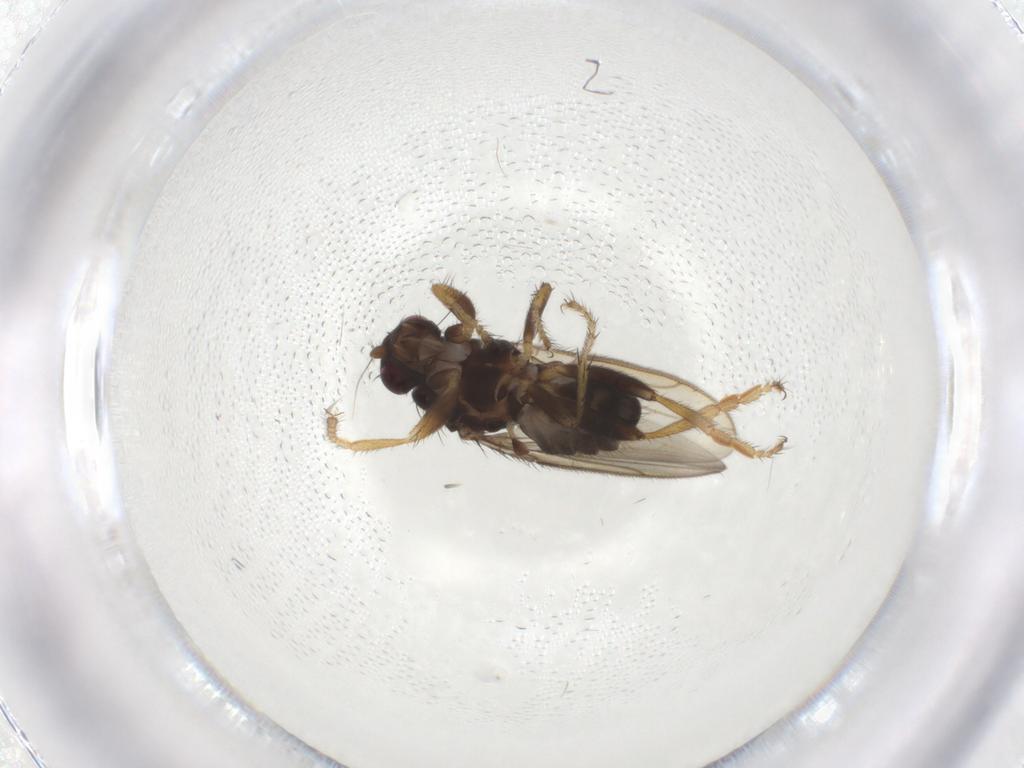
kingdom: Animalia
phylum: Arthropoda
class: Insecta
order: Diptera
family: Sphaeroceridae
